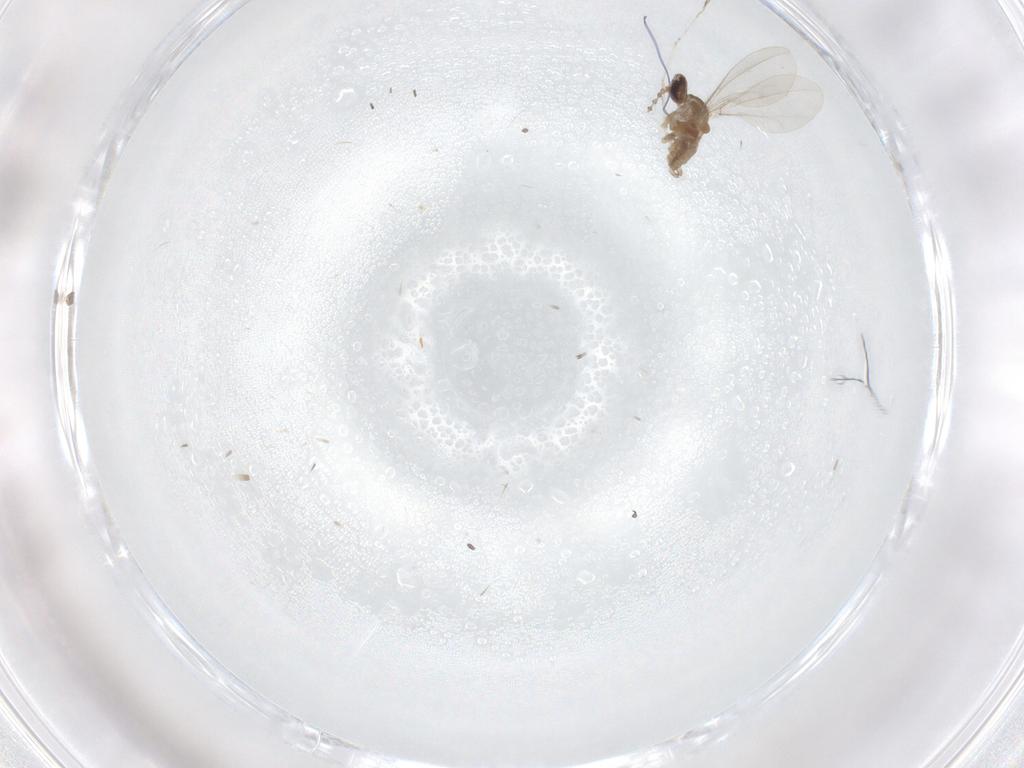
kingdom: Animalia
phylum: Arthropoda
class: Insecta
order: Diptera
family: Cecidomyiidae
